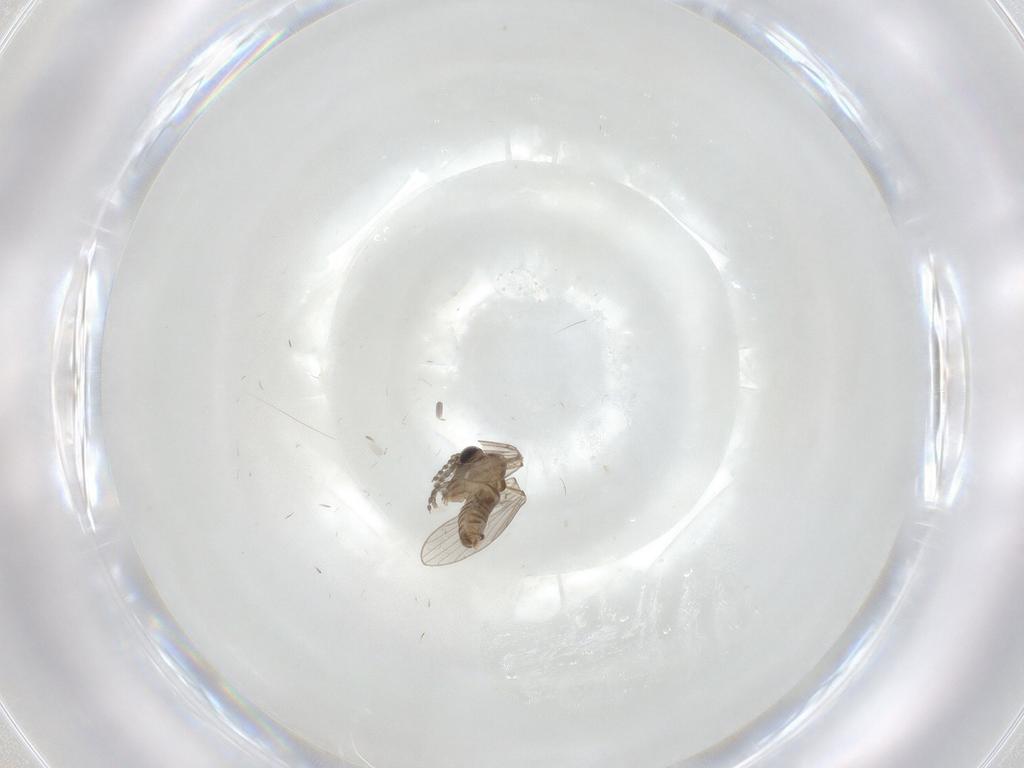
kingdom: Animalia
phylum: Arthropoda
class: Insecta
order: Diptera
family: Psychodidae
